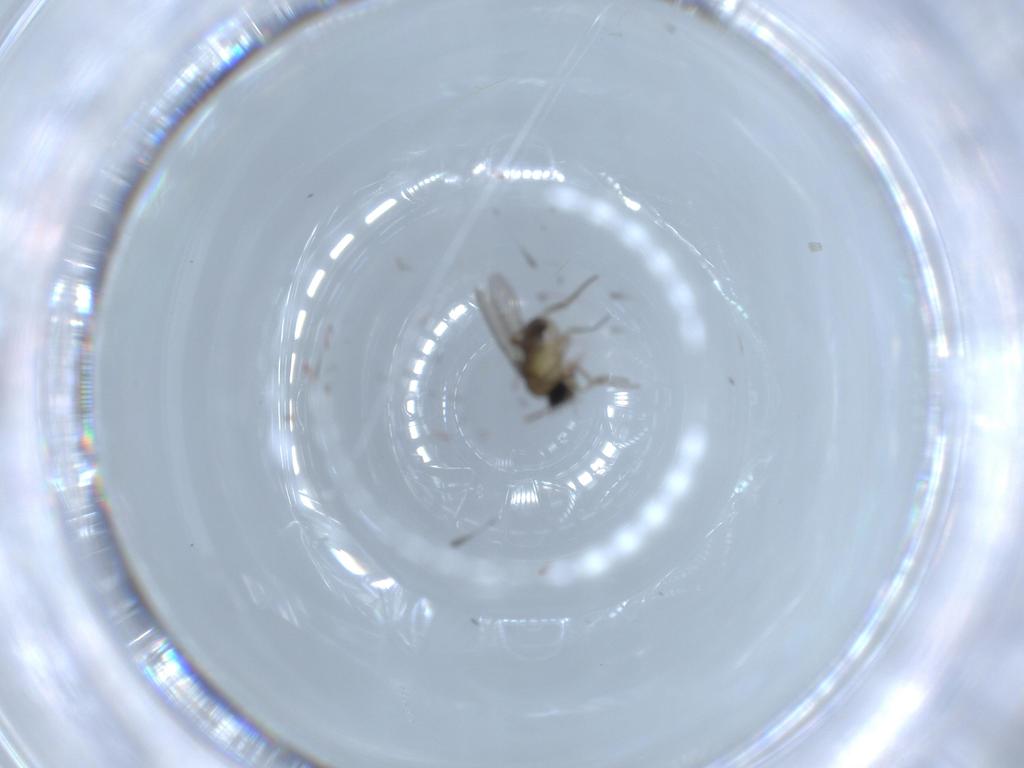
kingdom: Animalia
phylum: Arthropoda
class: Insecta
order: Diptera
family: Phoridae
